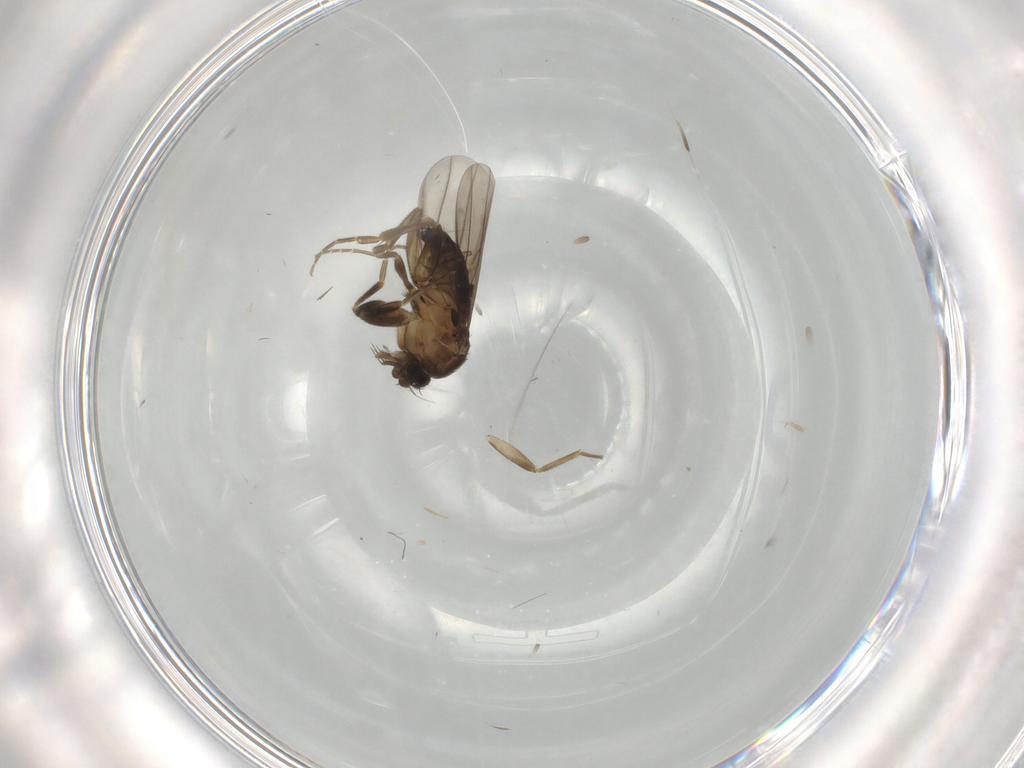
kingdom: Animalia
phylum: Arthropoda
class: Insecta
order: Diptera
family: Scatopsidae
